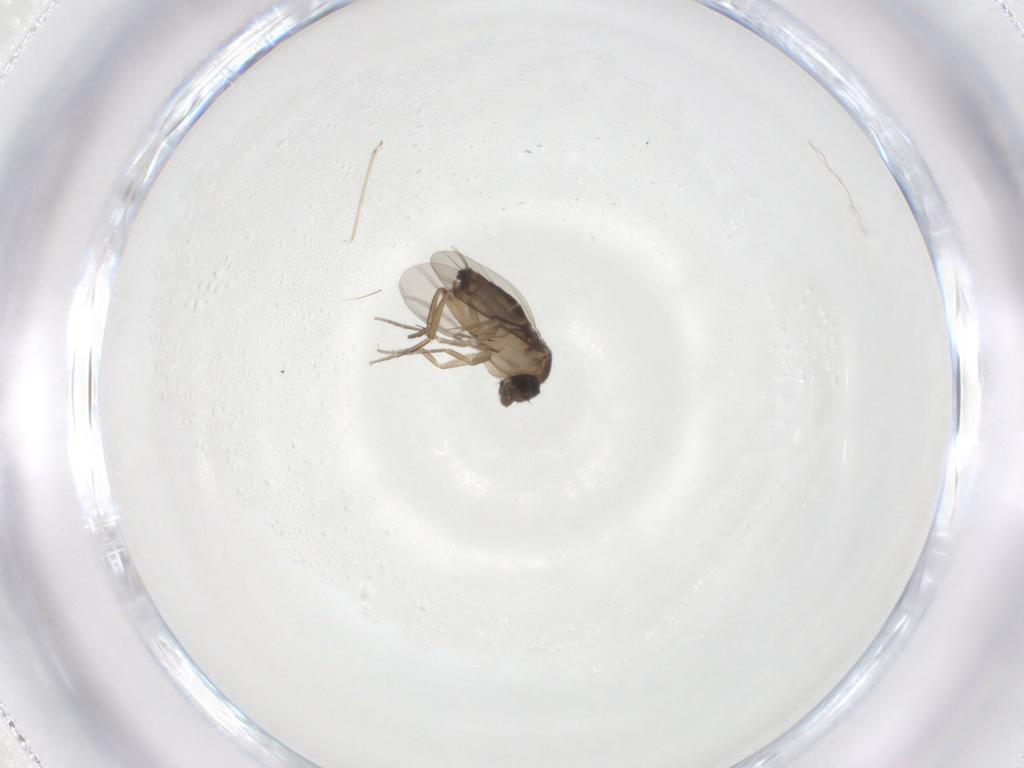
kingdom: Animalia
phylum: Arthropoda
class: Insecta
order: Diptera
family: Cecidomyiidae
